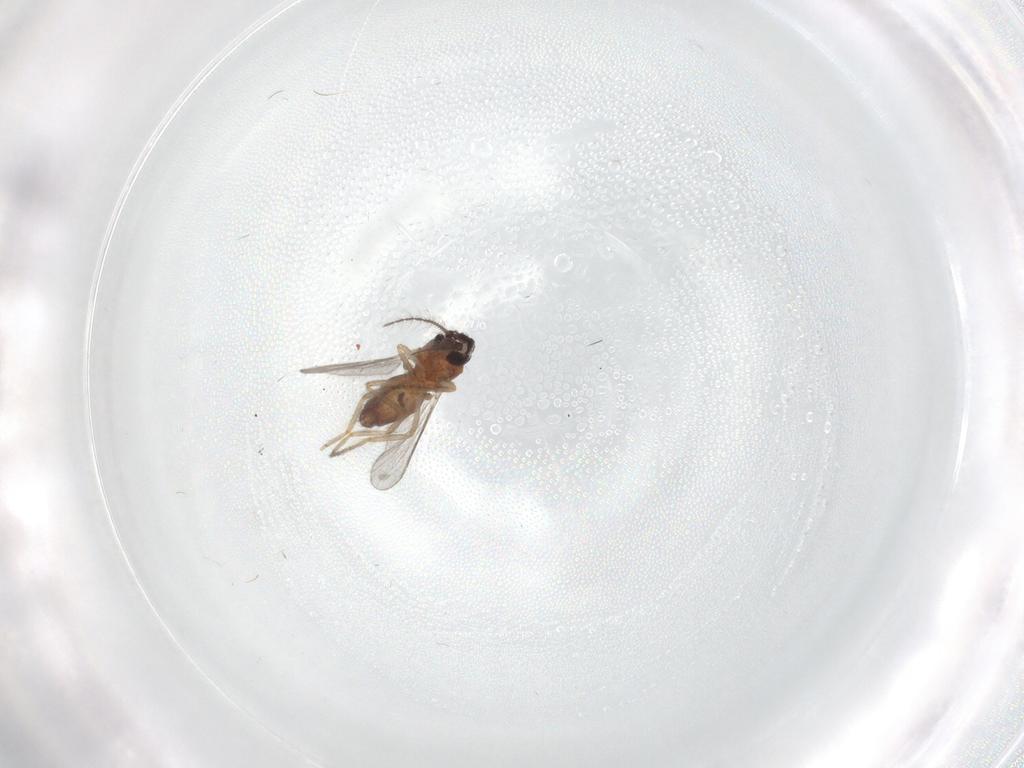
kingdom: Animalia
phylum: Arthropoda
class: Insecta
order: Diptera
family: Ceratopogonidae
